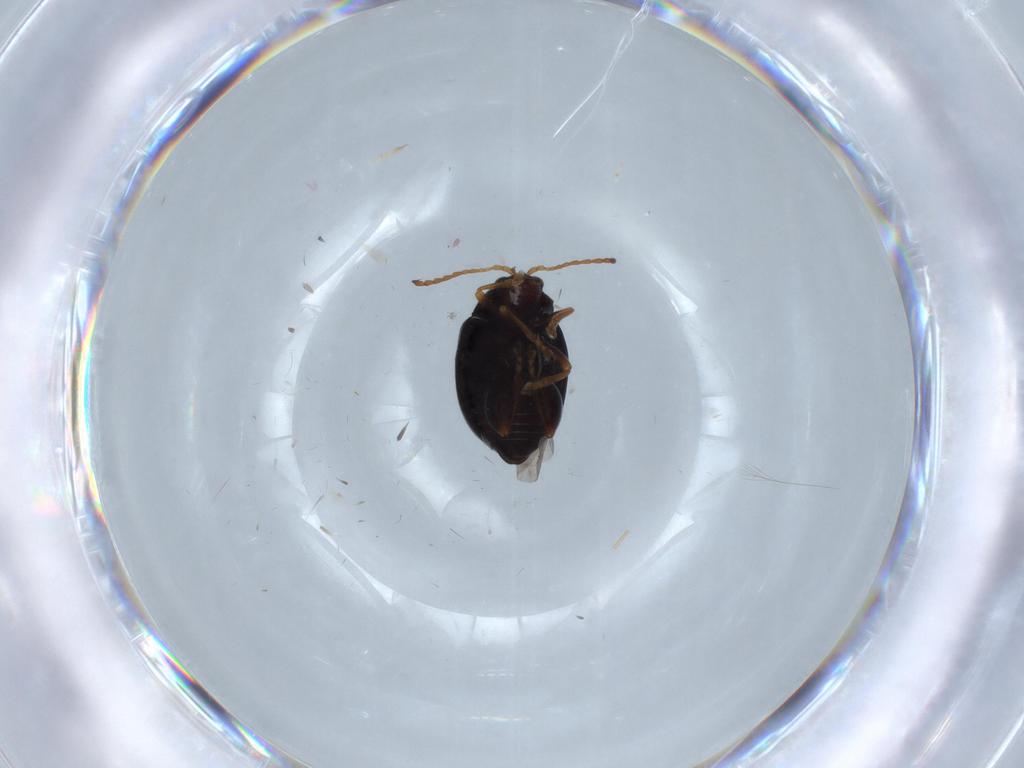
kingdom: Animalia
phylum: Arthropoda
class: Insecta
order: Coleoptera
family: Chrysomelidae
